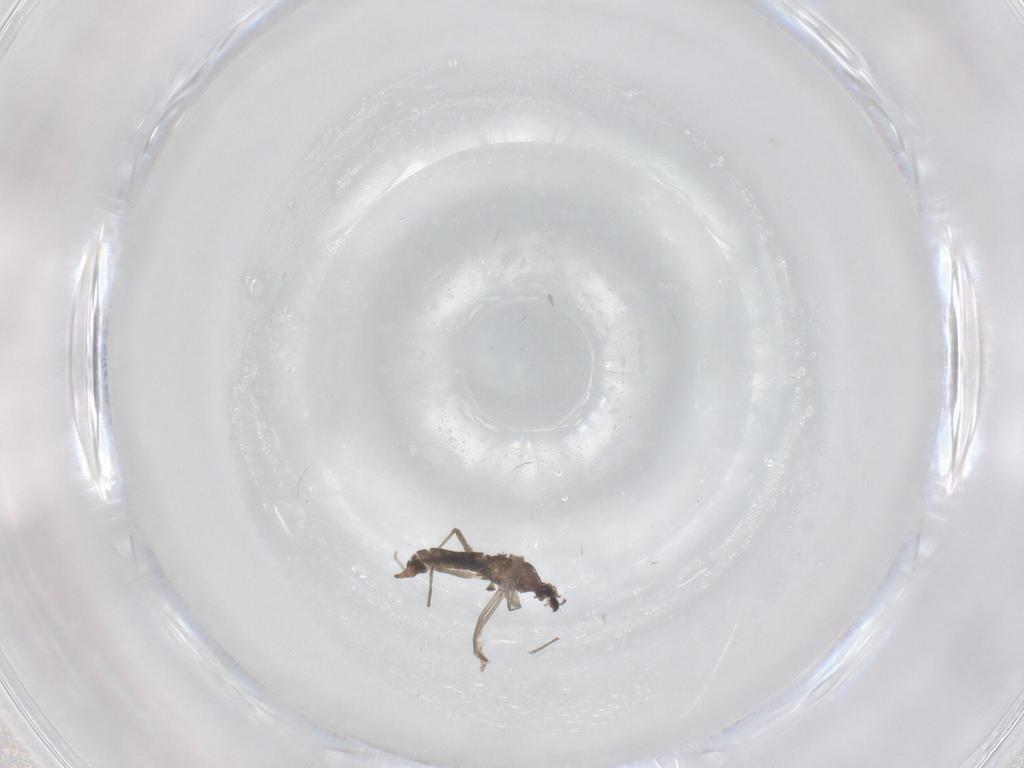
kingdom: Animalia
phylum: Arthropoda
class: Insecta
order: Diptera
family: Chironomidae
